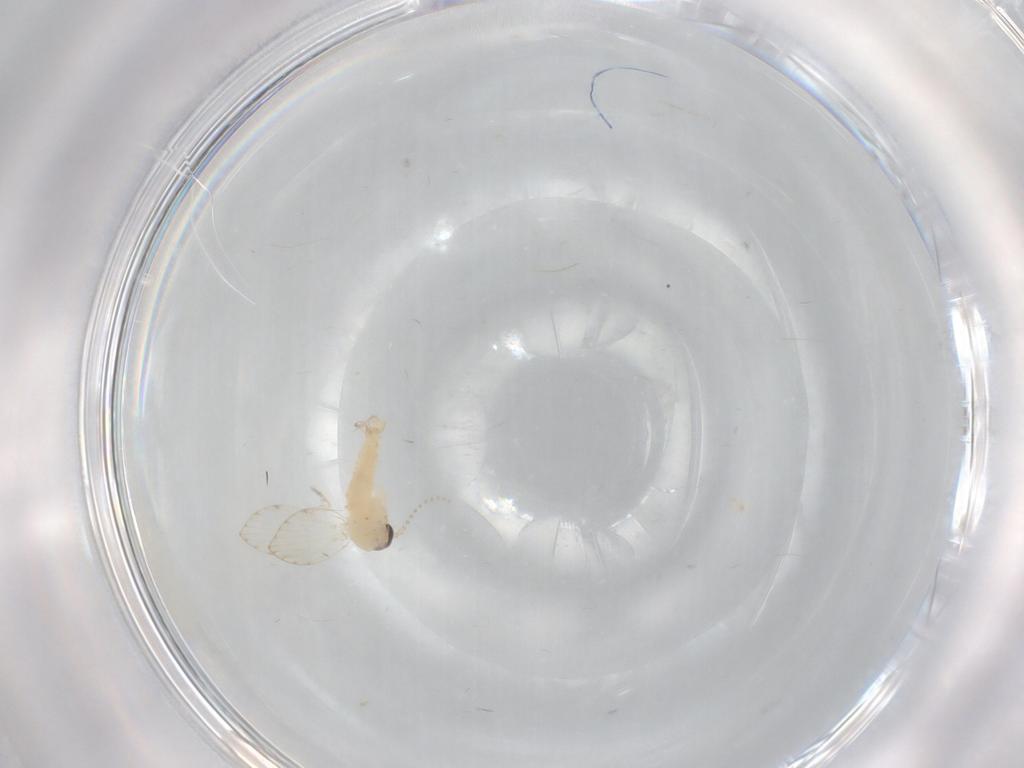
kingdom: Animalia
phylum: Arthropoda
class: Insecta
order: Diptera
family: Psychodidae
